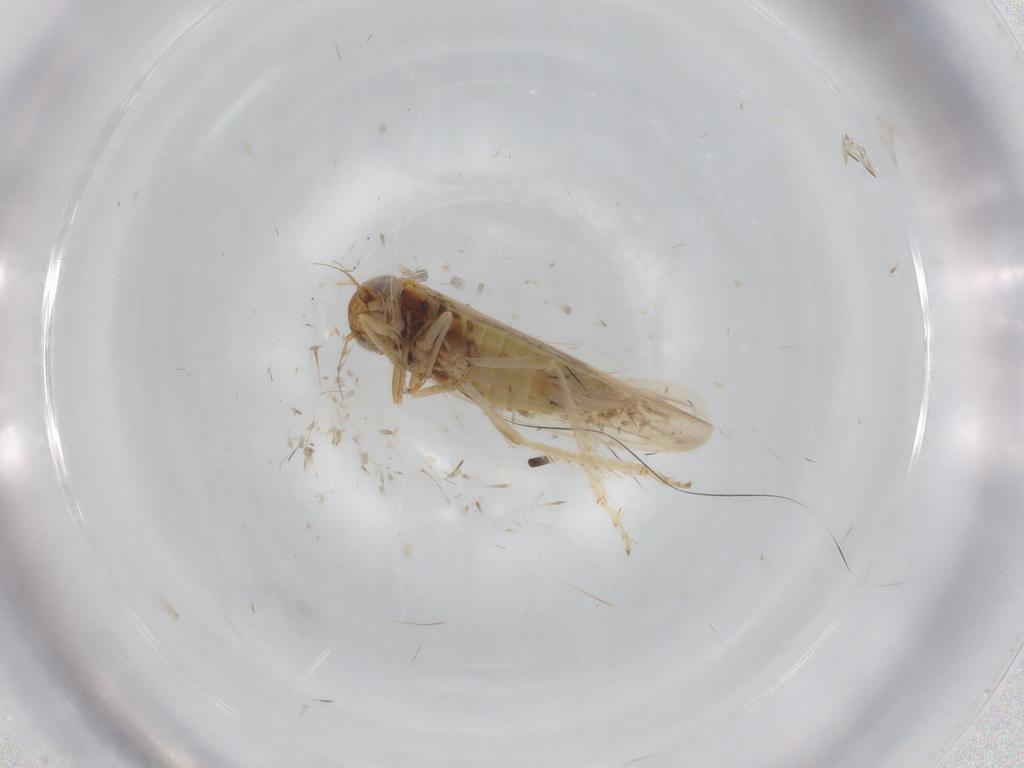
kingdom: Animalia
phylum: Arthropoda
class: Insecta
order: Hemiptera
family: Cicadellidae
